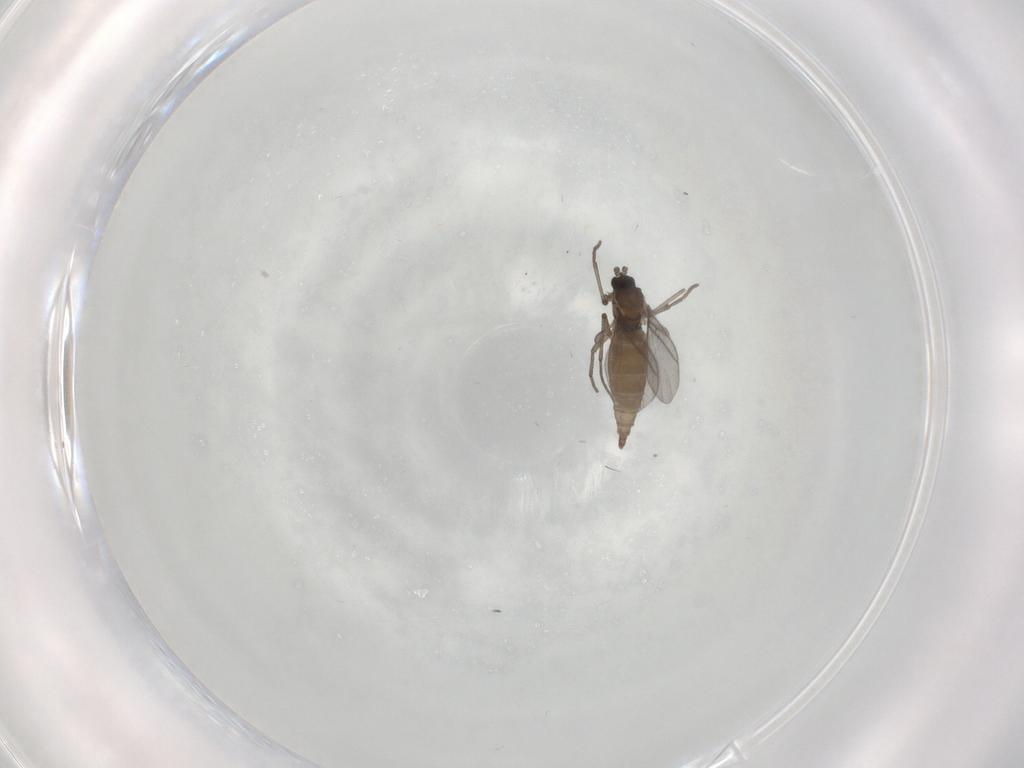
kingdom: Animalia
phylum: Arthropoda
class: Insecta
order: Diptera
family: Sciaridae
